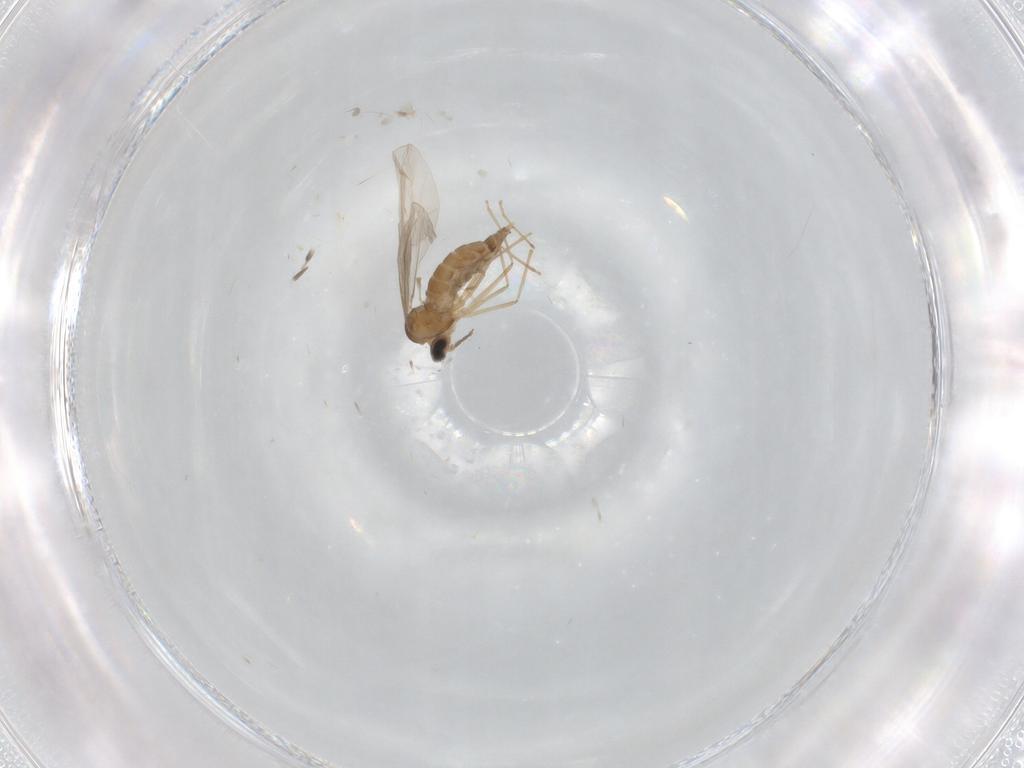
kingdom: Animalia
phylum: Arthropoda
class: Insecta
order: Diptera
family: Cecidomyiidae
